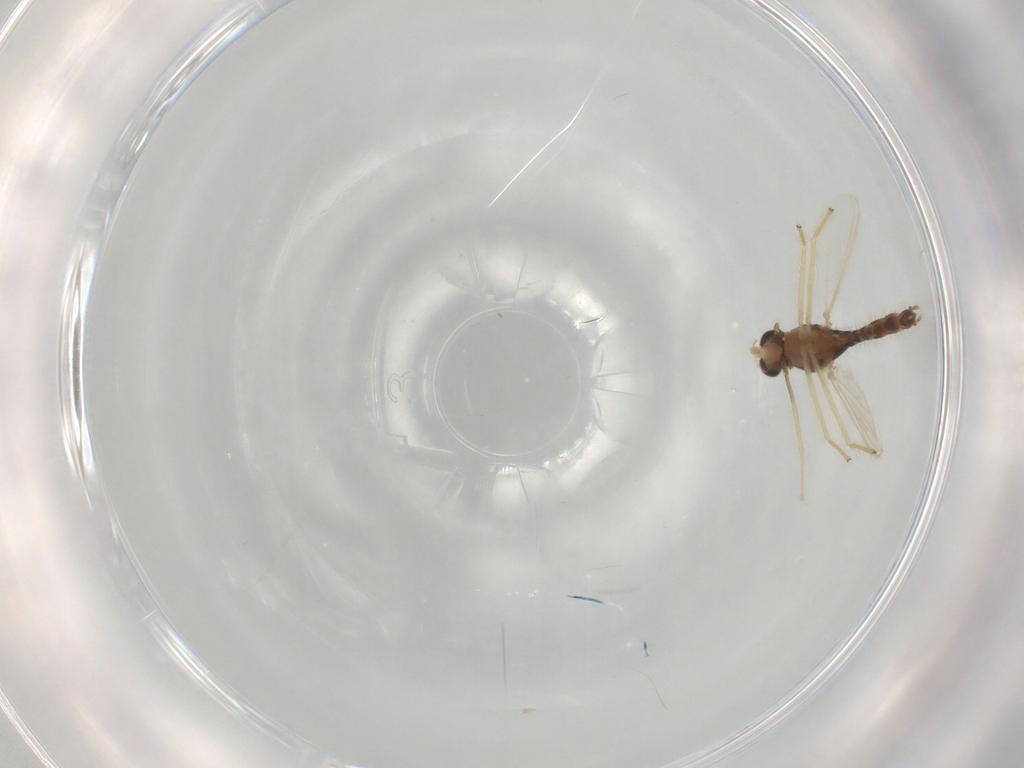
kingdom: Animalia
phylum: Arthropoda
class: Insecta
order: Diptera
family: Chironomidae
